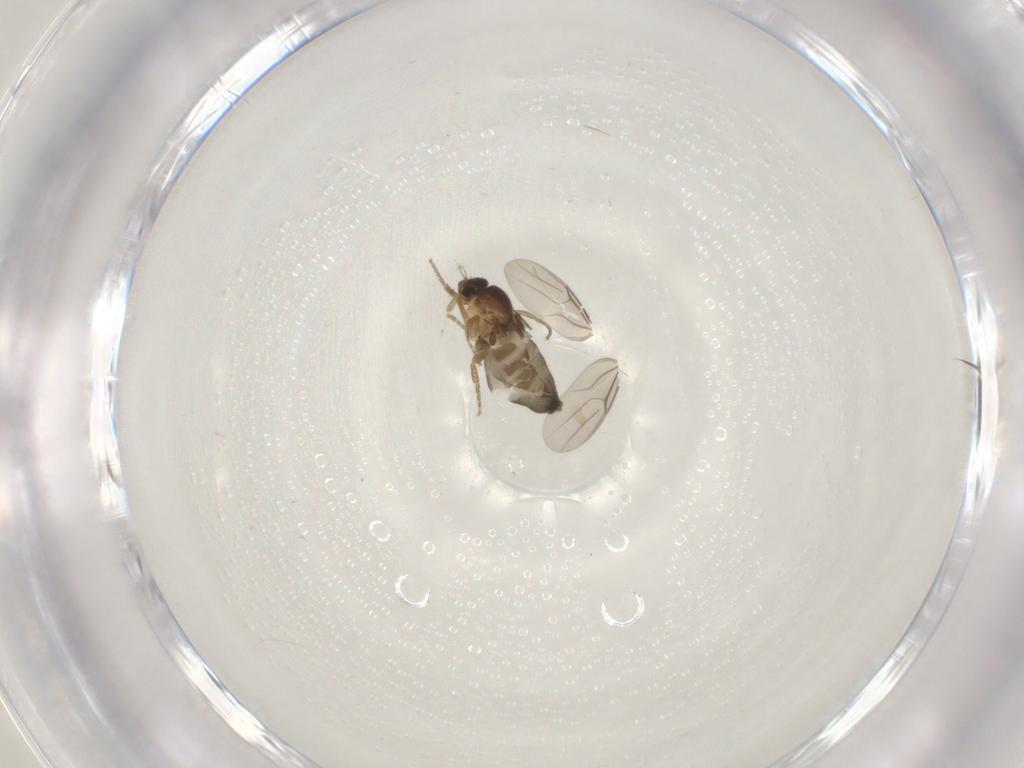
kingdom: Animalia
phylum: Arthropoda
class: Insecta
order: Diptera
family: Phoridae
